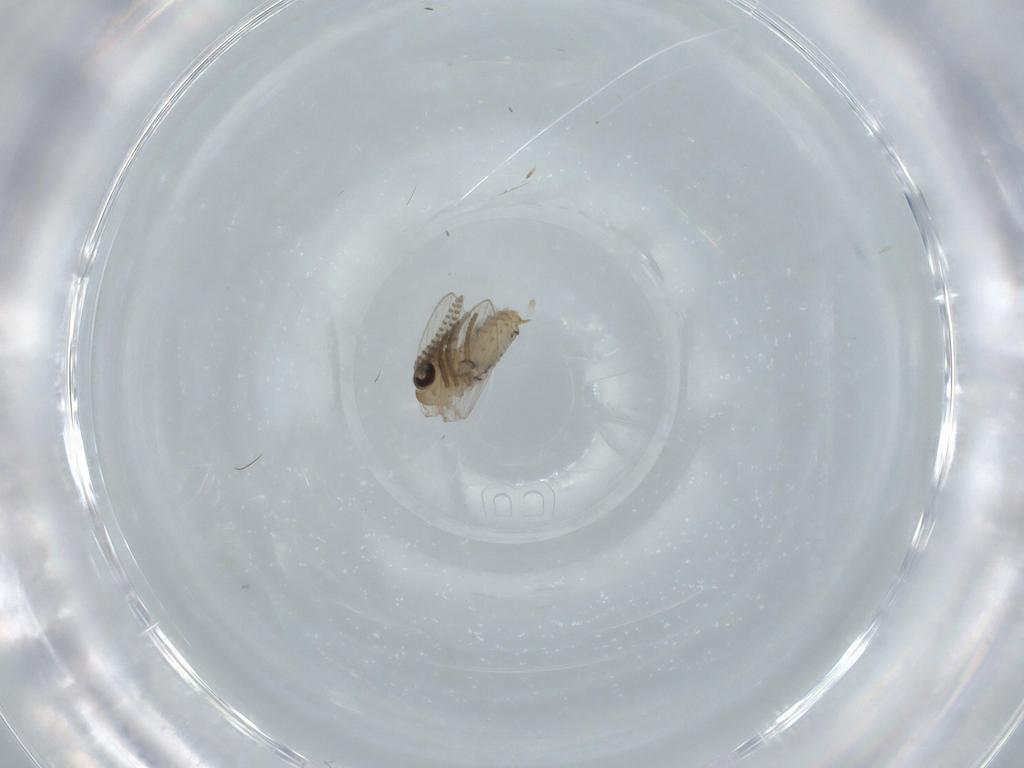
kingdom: Animalia
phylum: Arthropoda
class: Insecta
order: Diptera
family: Psychodidae
